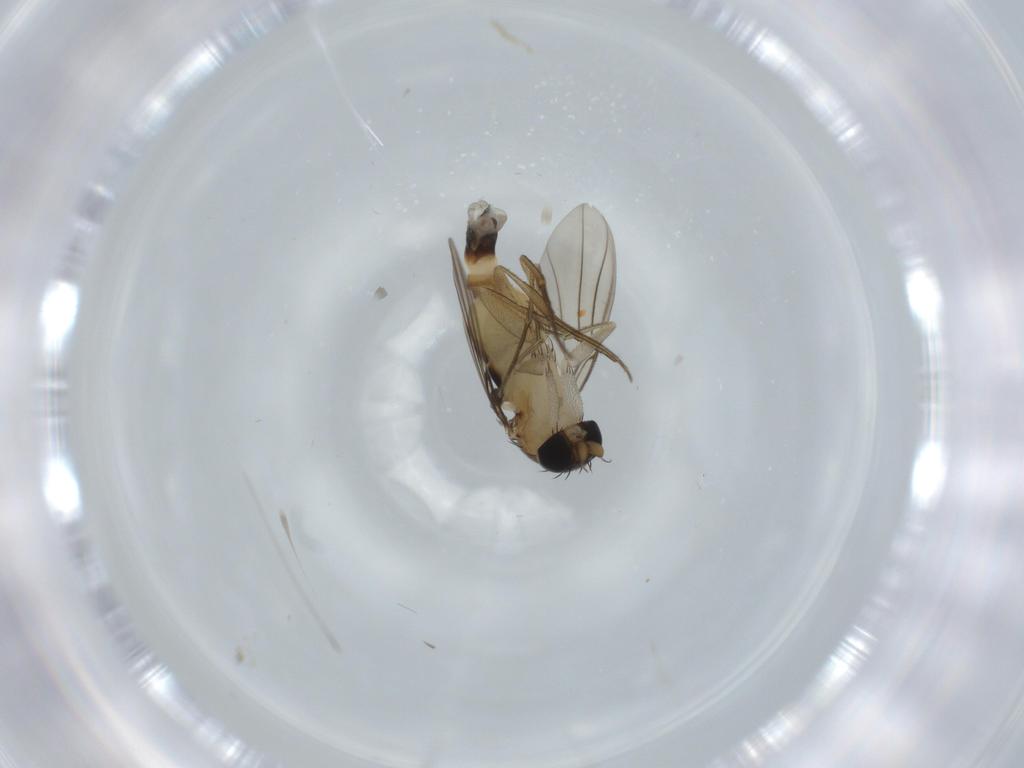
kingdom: Animalia
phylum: Arthropoda
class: Insecta
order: Diptera
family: Phoridae
